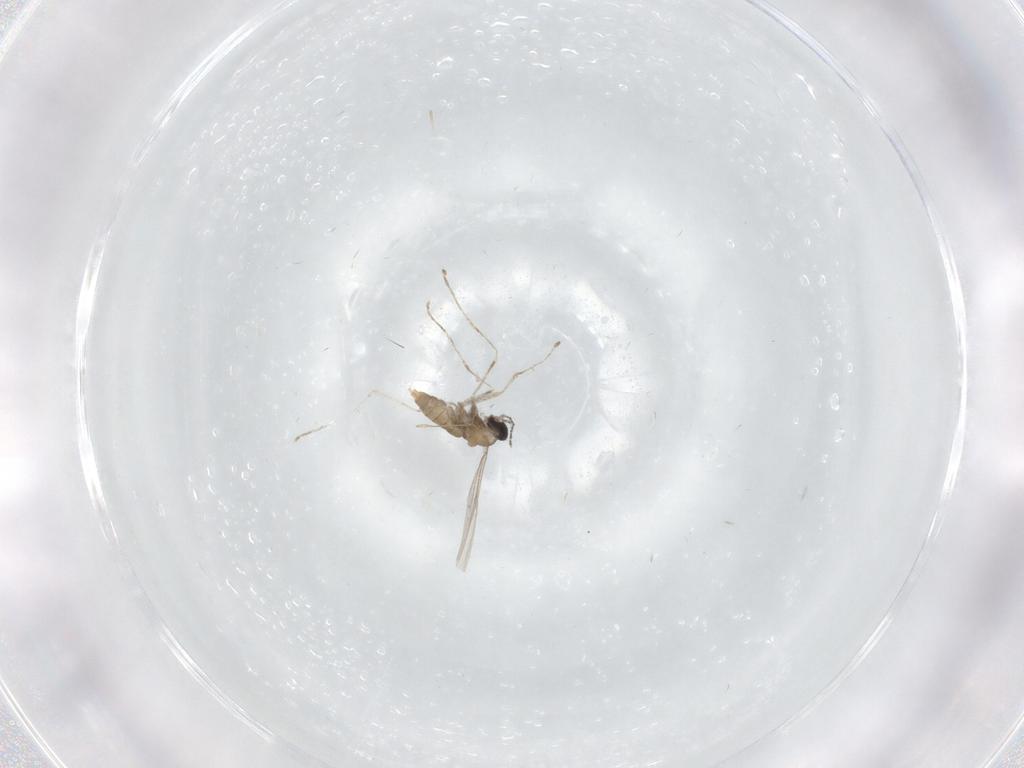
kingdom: Animalia
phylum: Arthropoda
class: Insecta
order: Diptera
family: Cecidomyiidae
